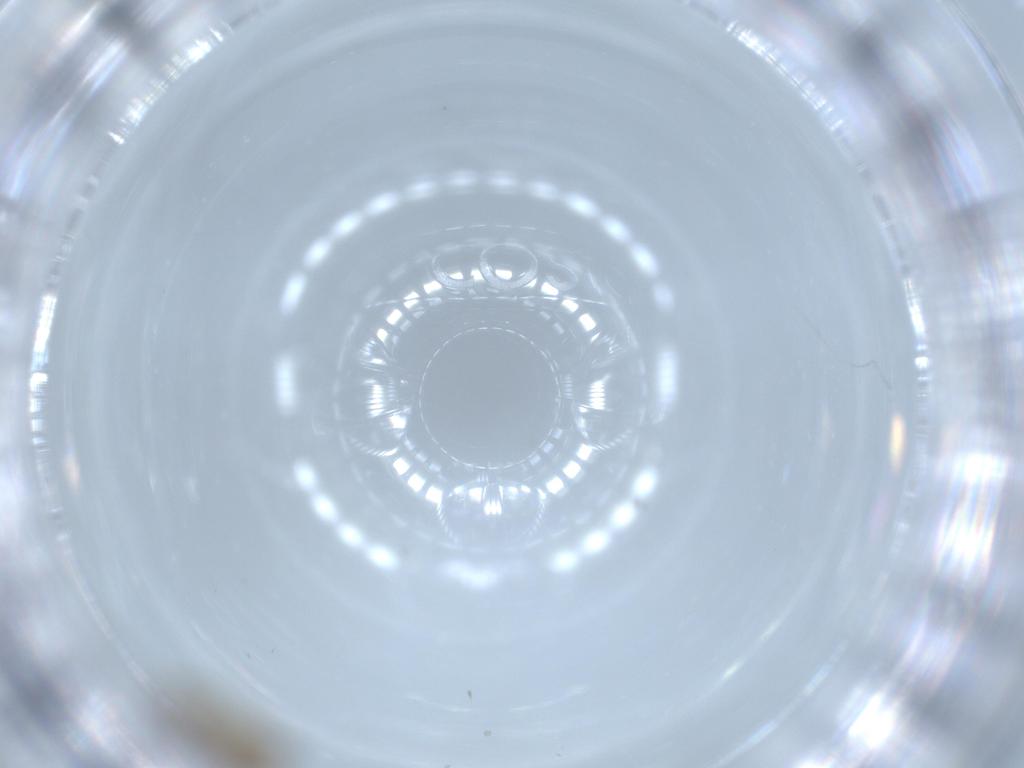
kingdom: Animalia
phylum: Arthropoda
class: Insecta
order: Diptera
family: Chironomidae
